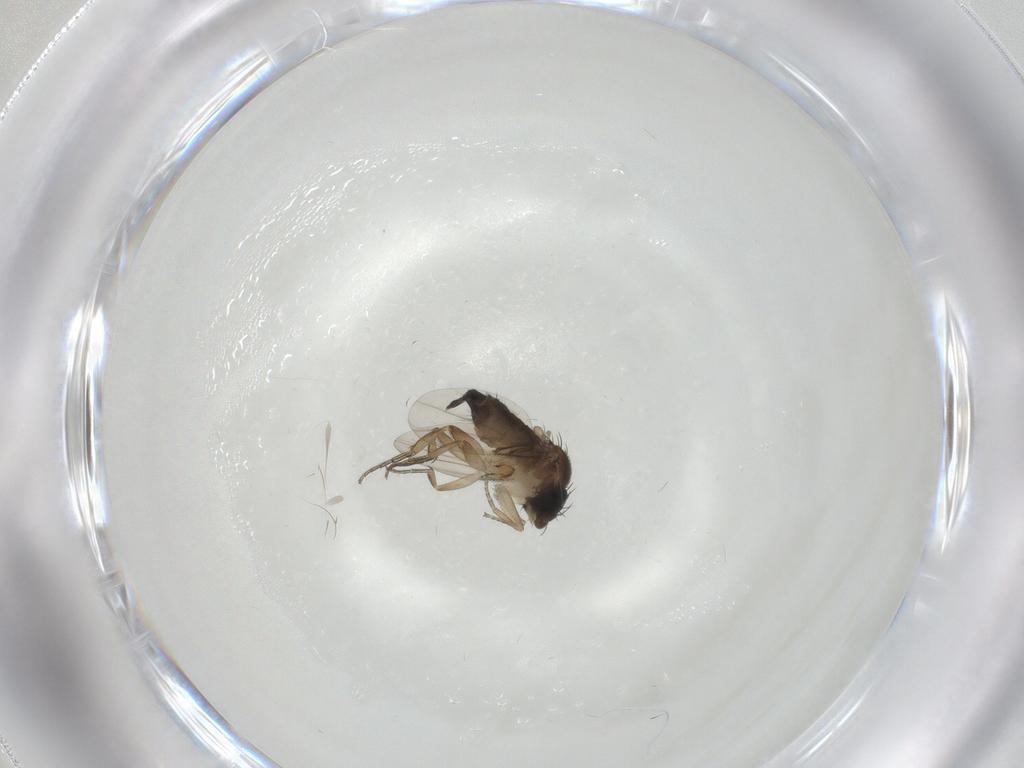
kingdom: Animalia
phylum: Arthropoda
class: Insecta
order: Diptera
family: Phoridae
